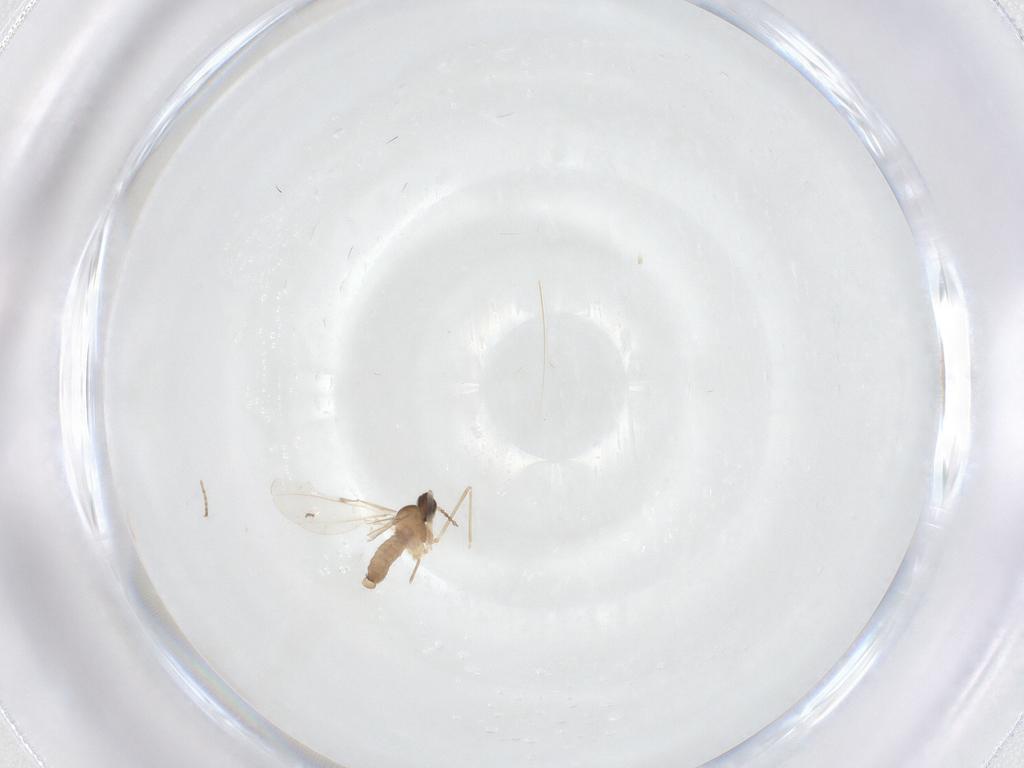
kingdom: Animalia
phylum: Arthropoda
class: Insecta
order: Diptera
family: Cecidomyiidae
